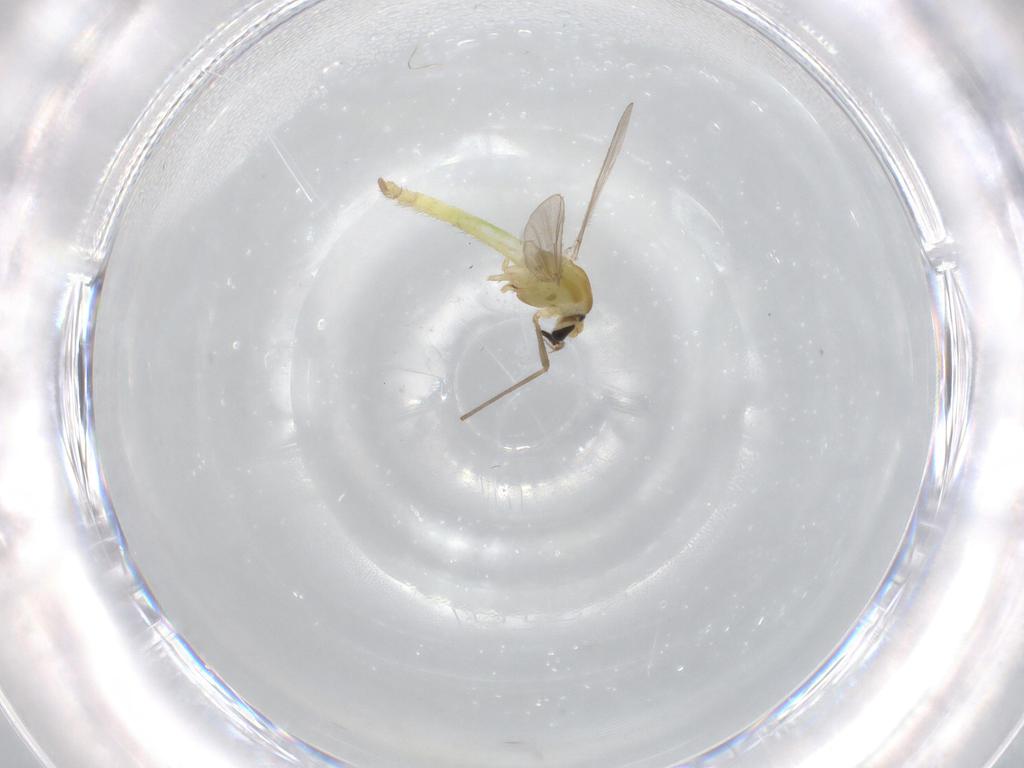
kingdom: Animalia
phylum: Arthropoda
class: Insecta
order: Diptera
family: Chironomidae
